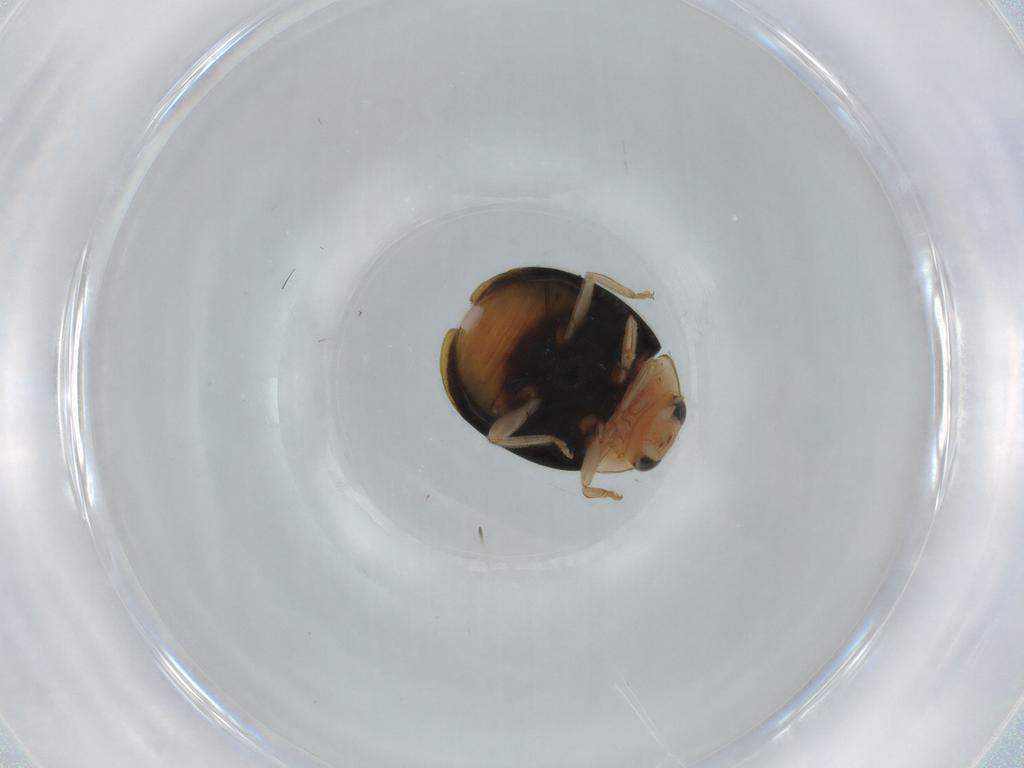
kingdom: Animalia
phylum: Arthropoda
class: Insecta
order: Coleoptera
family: Coccinellidae
